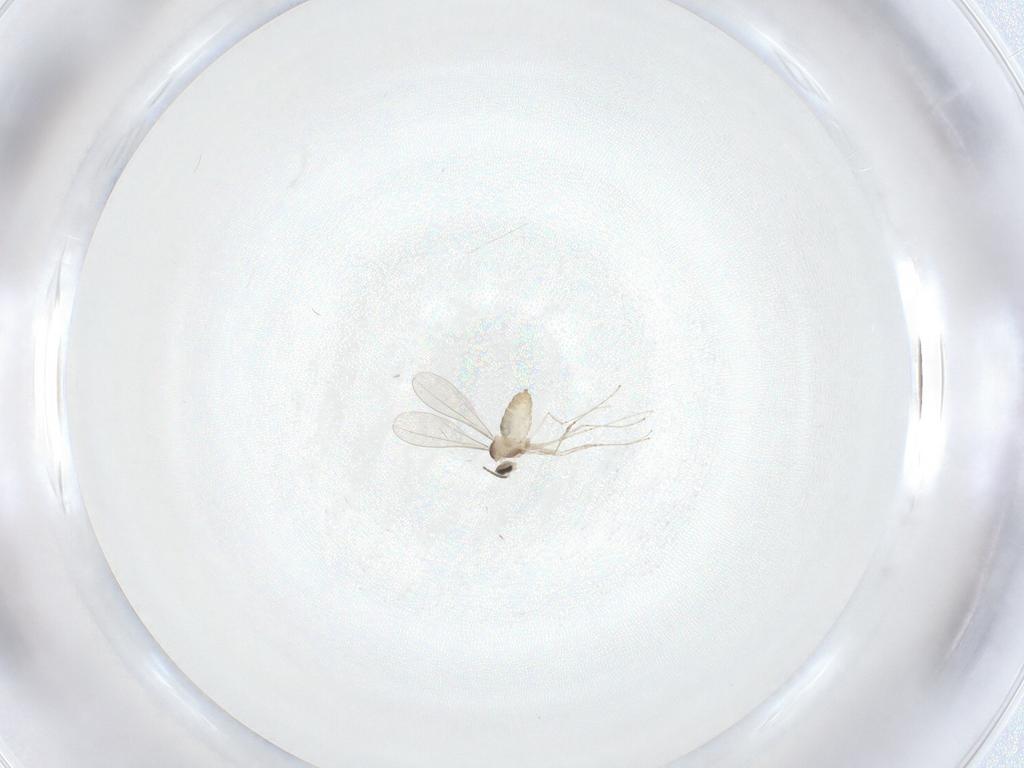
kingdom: Animalia
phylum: Arthropoda
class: Insecta
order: Diptera
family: Cecidomyiidae
